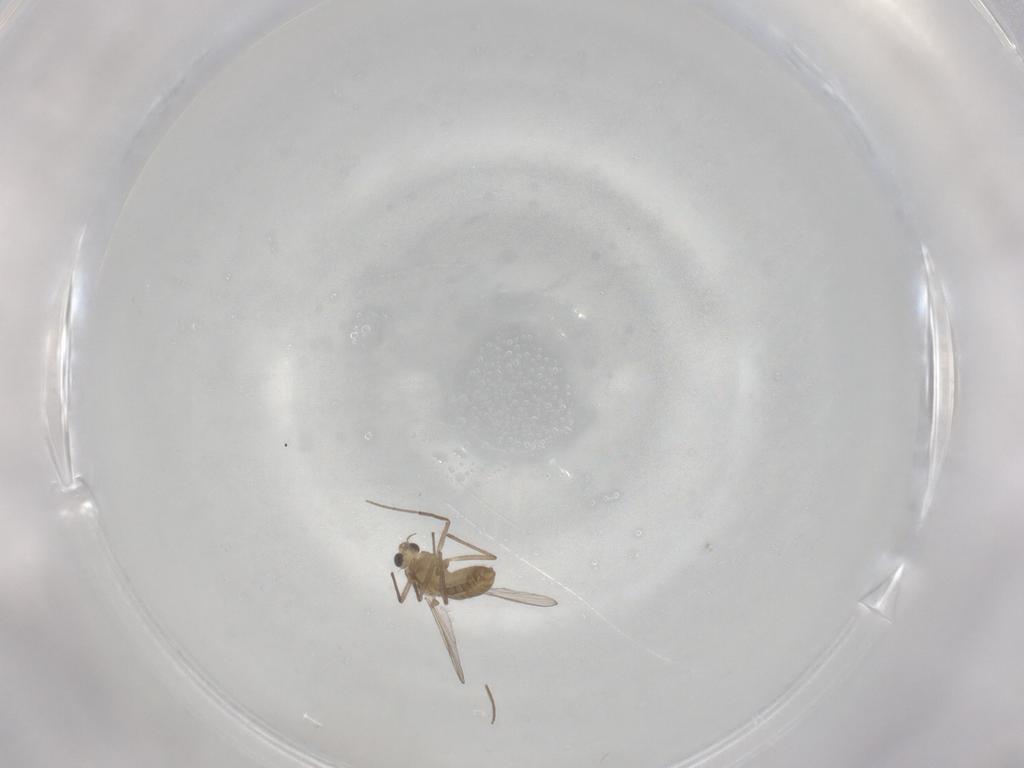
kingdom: Animalia
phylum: Arthropoda
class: Insecta
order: Diptera
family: Chironomidae
